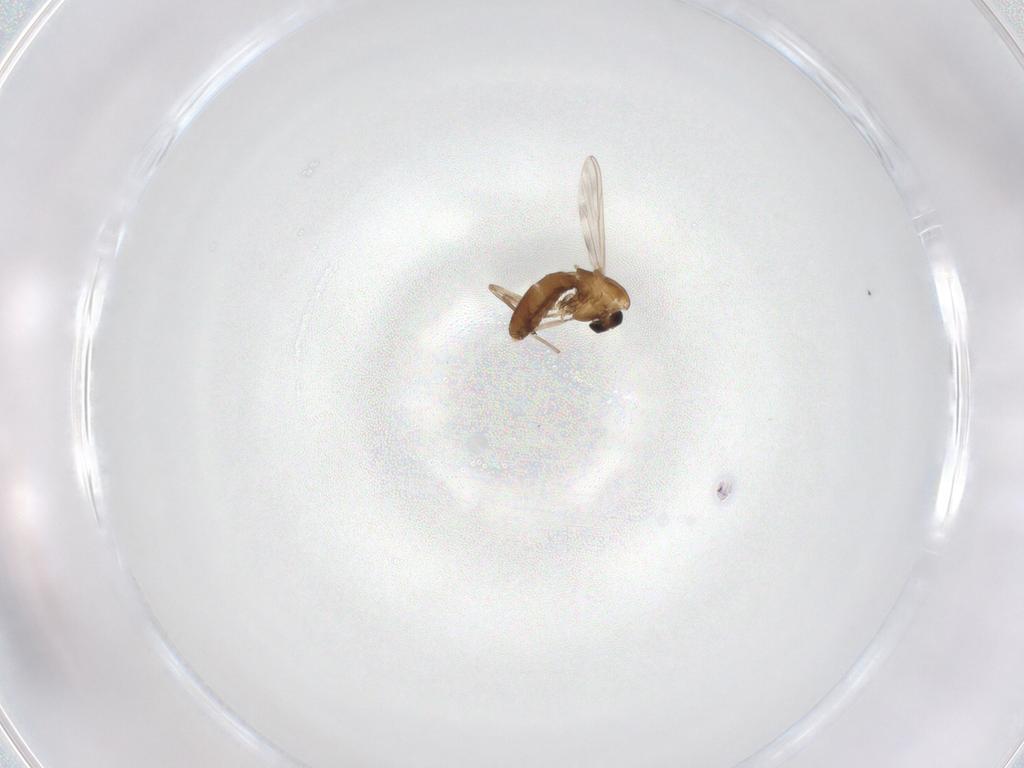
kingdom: Animalia
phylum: Arthropoda
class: Insecta
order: Diptera
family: Chironomidae
